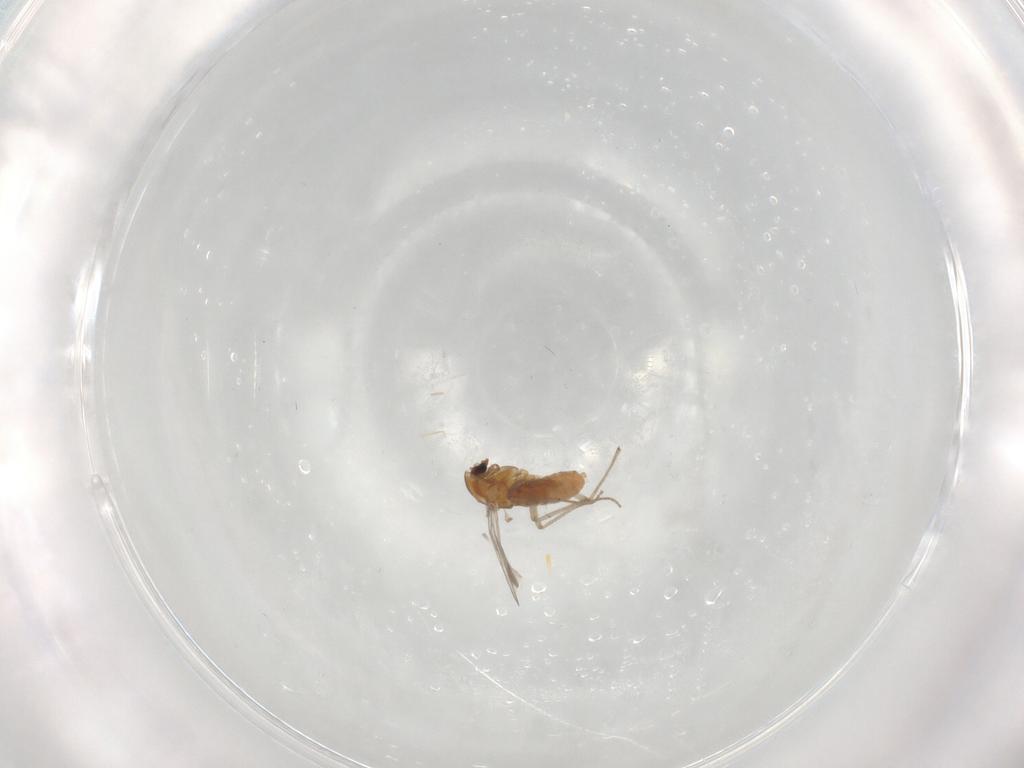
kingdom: Animalia
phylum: Arthropoda
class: Insecta
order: Diptera
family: Chironomidae
